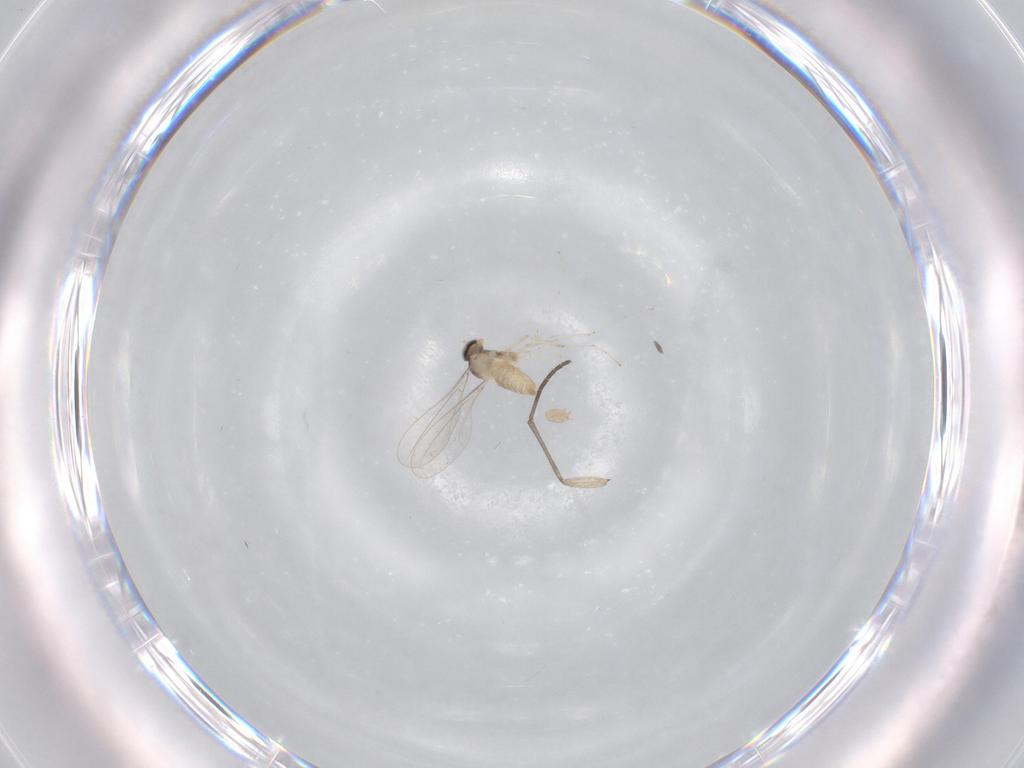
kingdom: Animalia
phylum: Arthropoda
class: Insecta
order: Diptera
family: Cecidomyiidae
